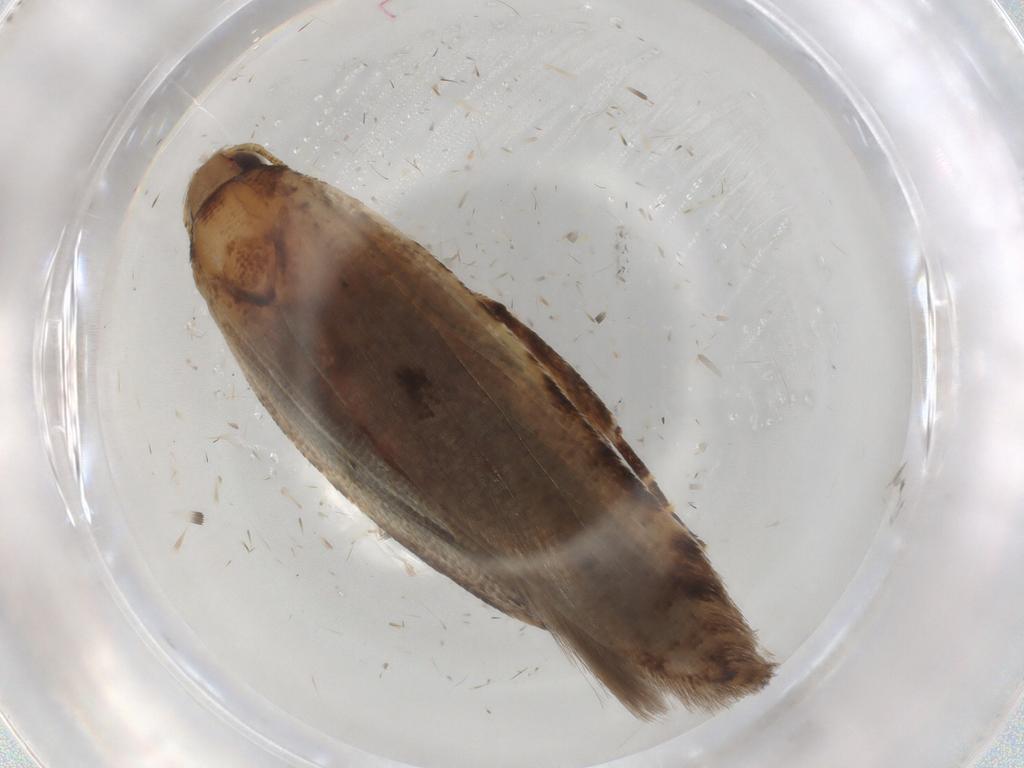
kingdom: Animalia
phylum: Arthropoda
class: Insecta
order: Lepidoptera
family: Gelechiidae
